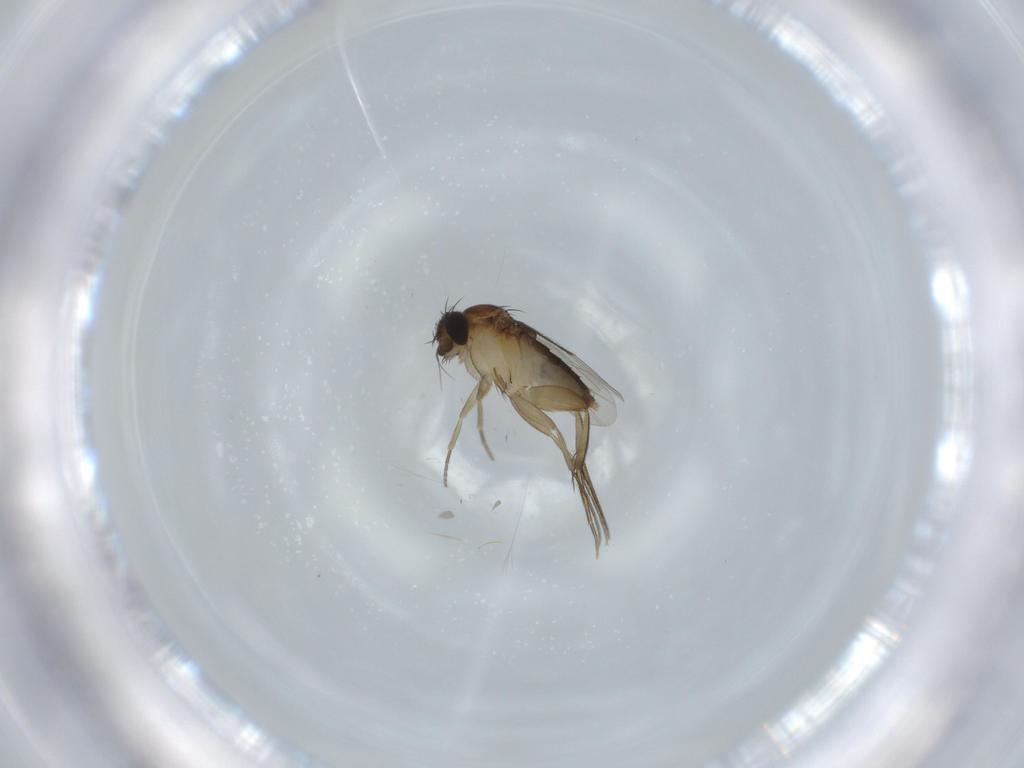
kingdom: Animalia
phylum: Arthropoda
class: Insecta
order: Diptera
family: Phoridae
